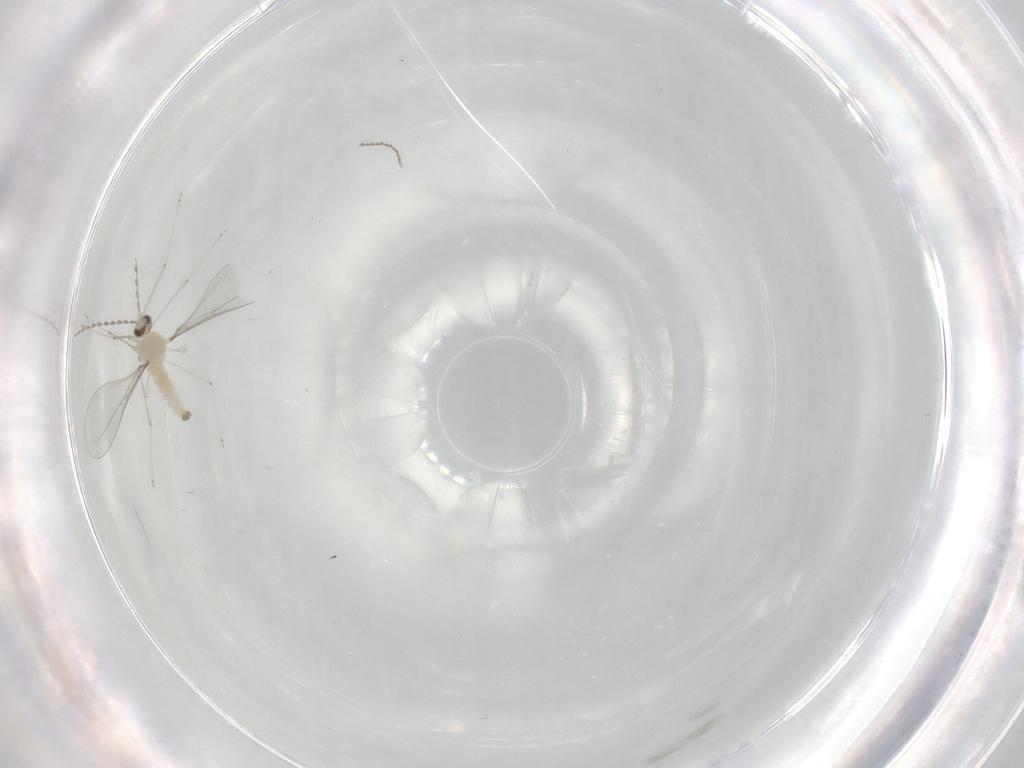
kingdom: Animalia
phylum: Arthropoda
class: Insecta
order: Diptera
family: Cecidomyiidae
